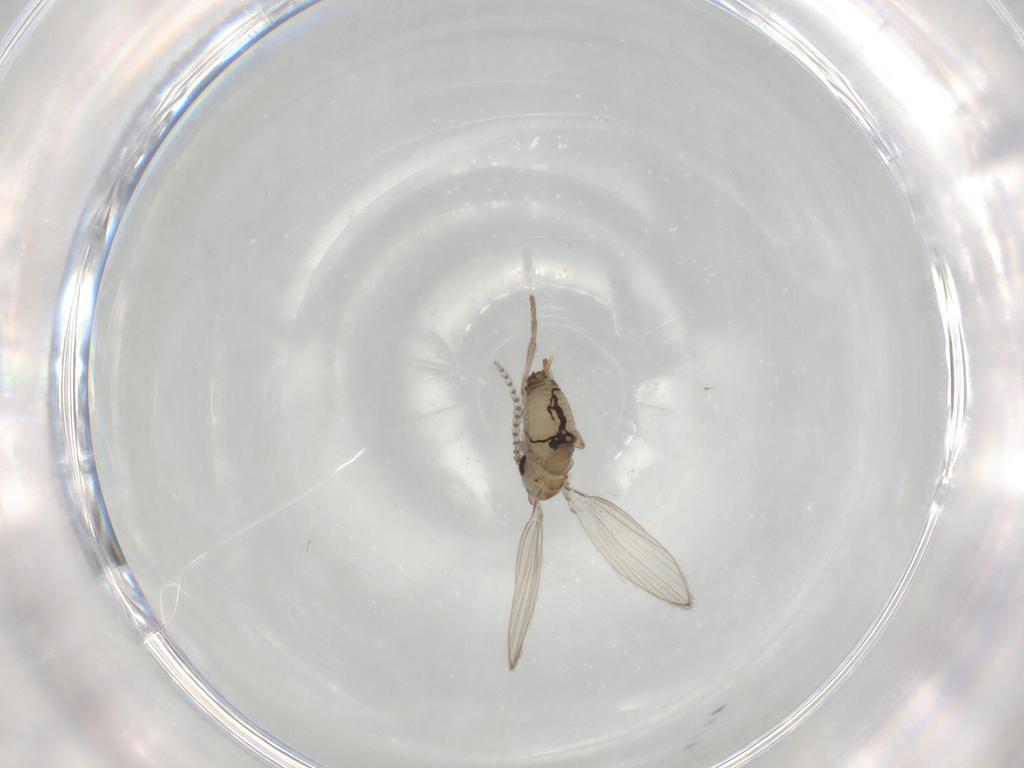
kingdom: Animalia
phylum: Arthropoda
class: Insecta
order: Diptera
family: Psychodidae
